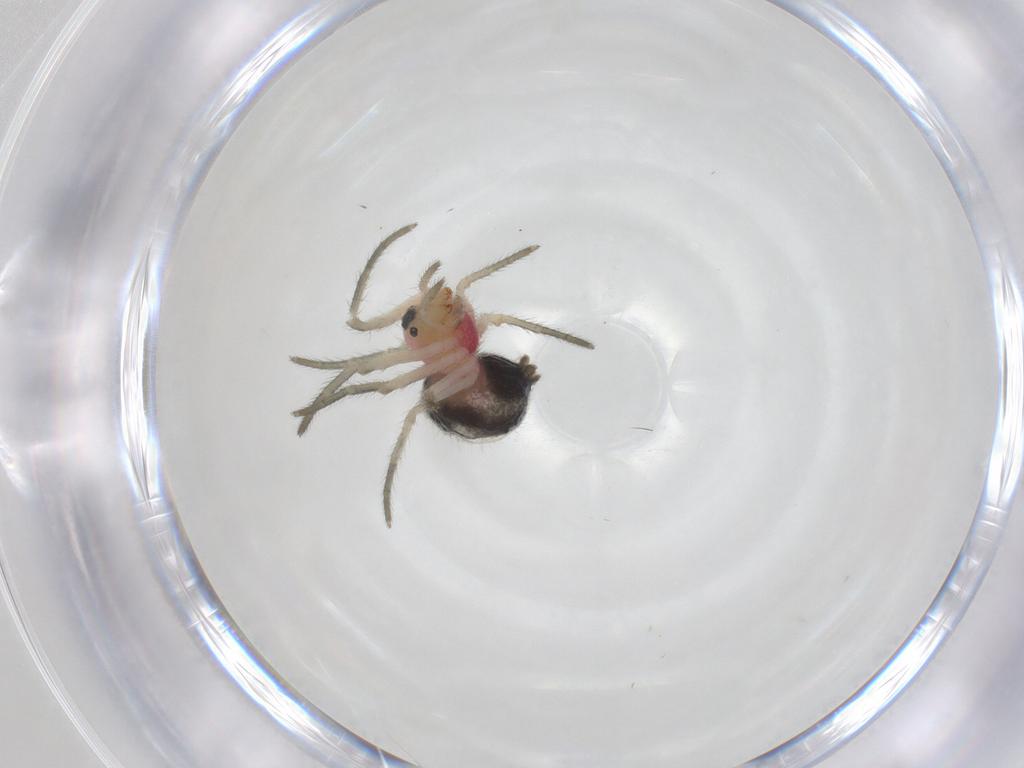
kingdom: Animalia
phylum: Arthropoda
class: Arachnida
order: Araneae
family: Araneidae
